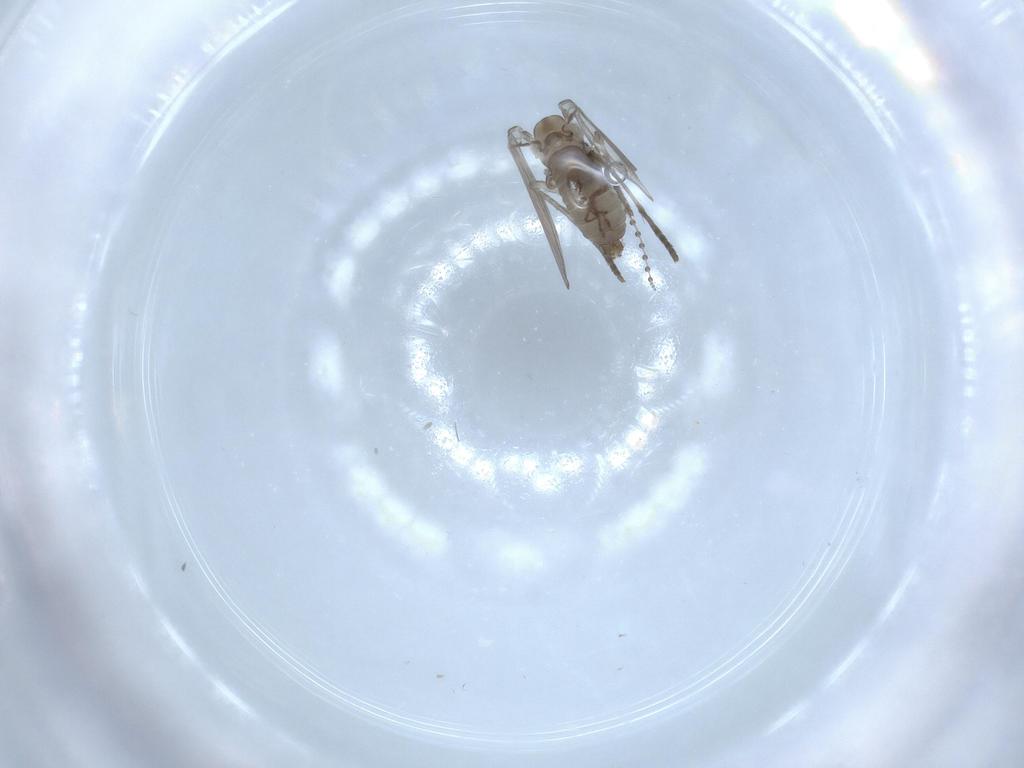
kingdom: Animalia
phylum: Arthropoda
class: Insecta
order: Diptera
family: Psychodidae
